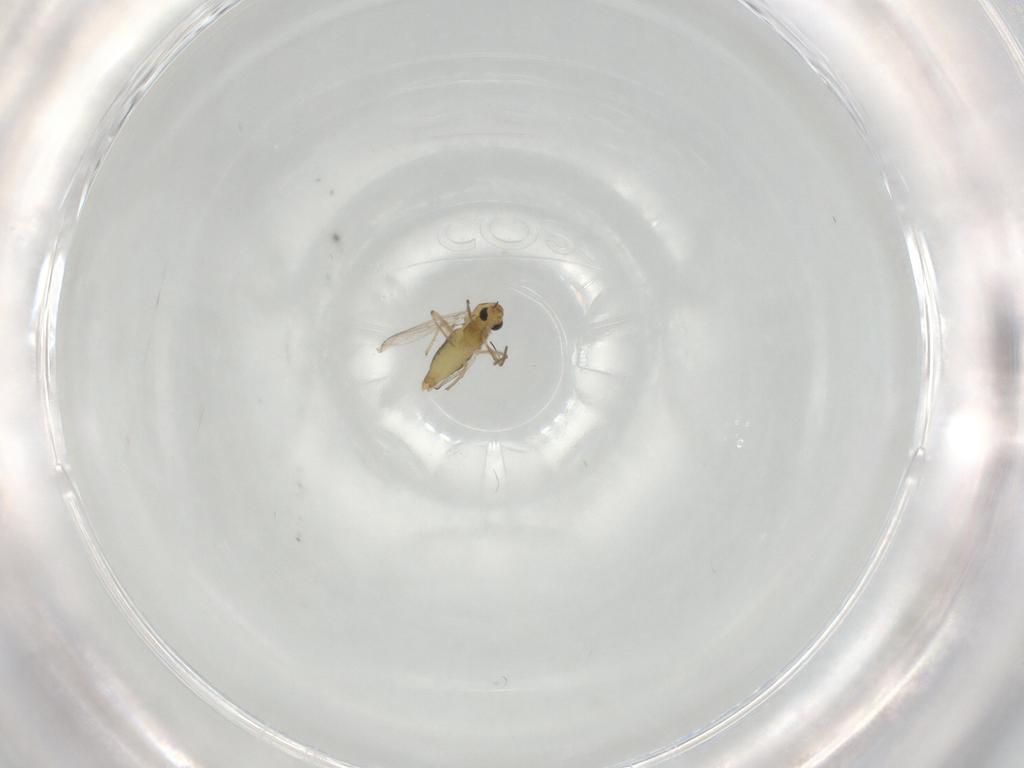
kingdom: Animalia
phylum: Arthropoda
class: Insecta
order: Diptera
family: Chironomidae
